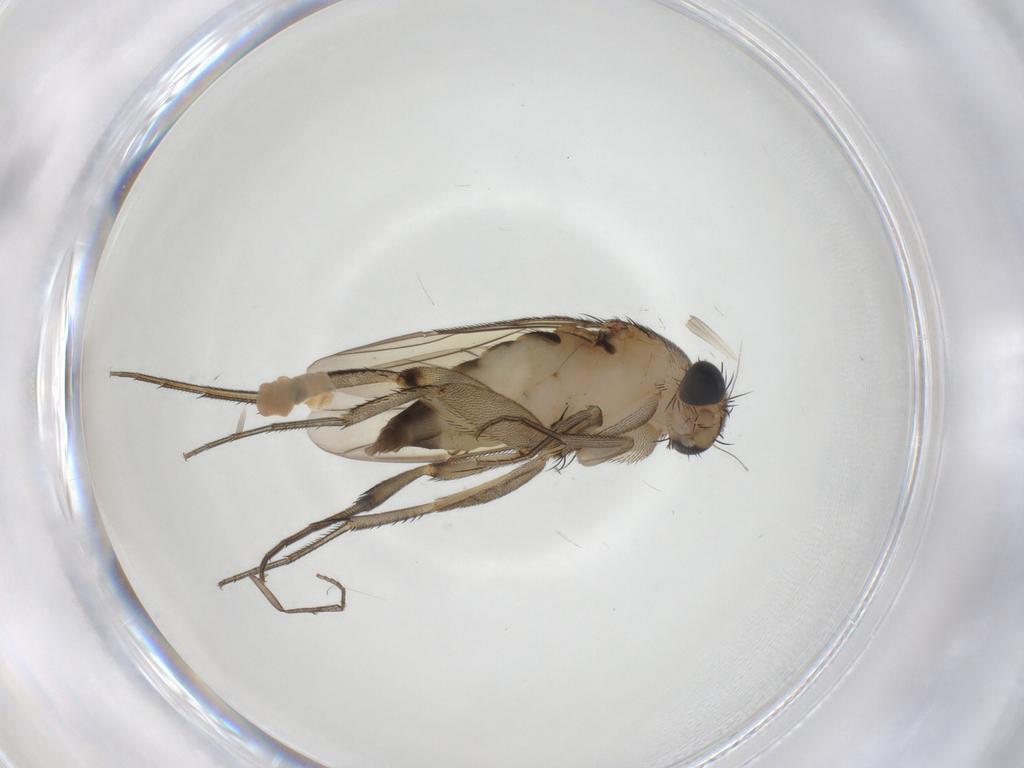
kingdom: Animalia
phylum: Arthropoda
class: Insecta
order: Diptera
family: Phoridae
